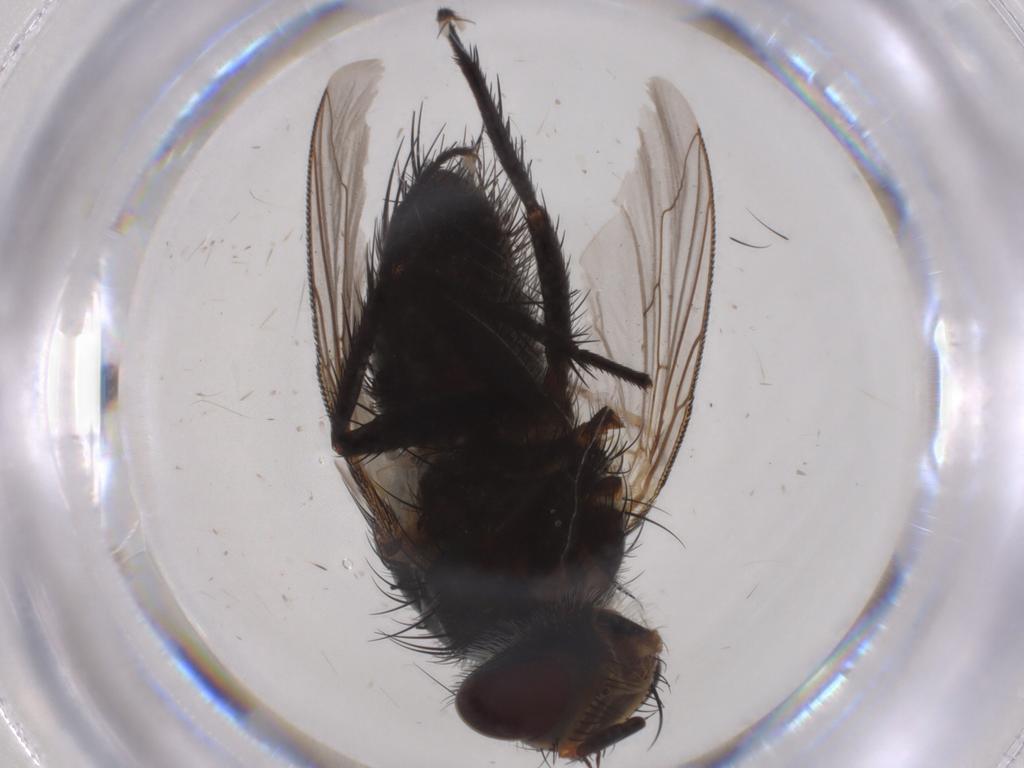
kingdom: Animalia
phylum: Arthropoda
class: Insecta
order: Diptera
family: Tachinidae
